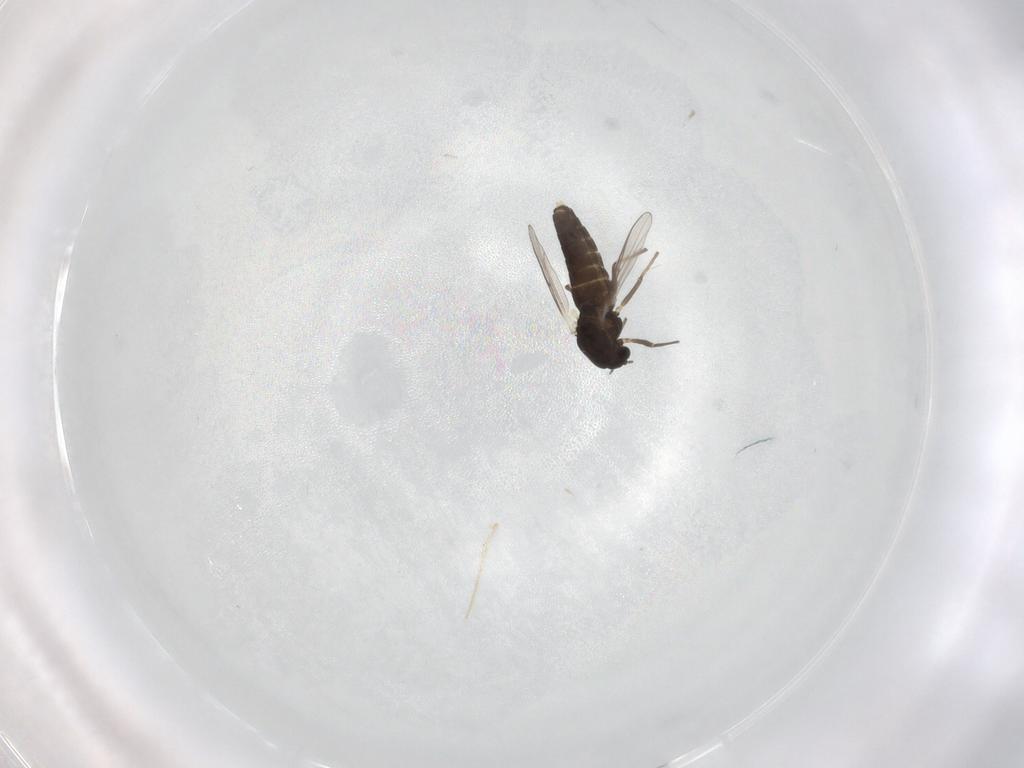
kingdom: Animalia
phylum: Arthropoda
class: Insecta
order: Diptera
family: Chironomidae
